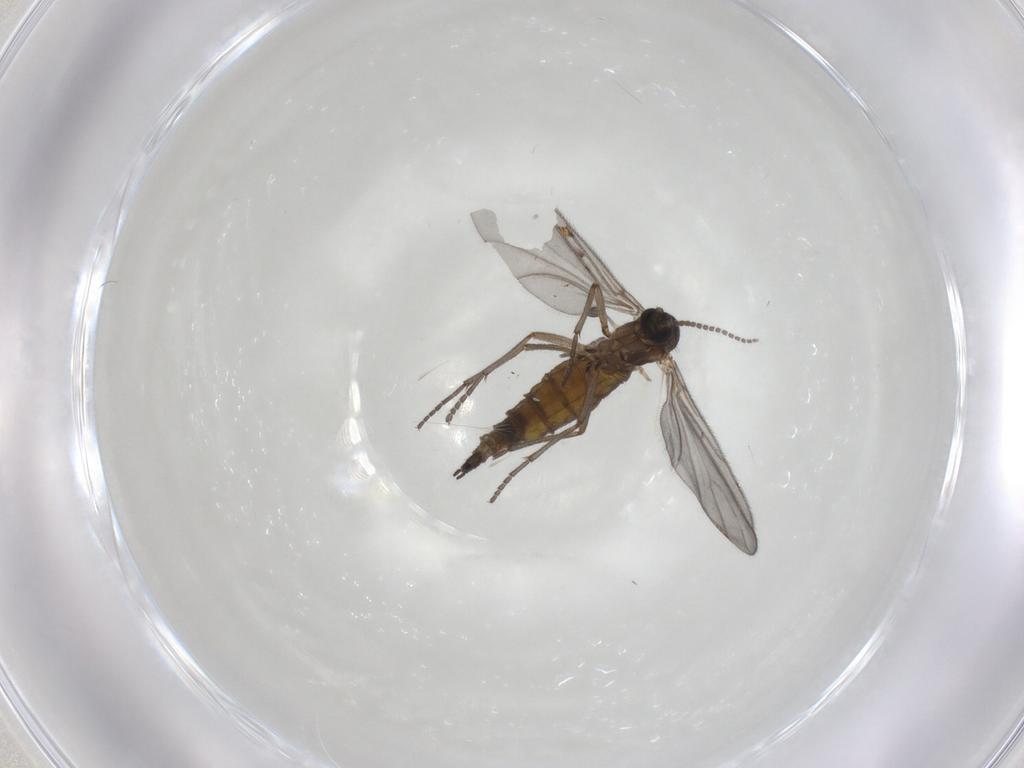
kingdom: Animalia
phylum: Arthropoda
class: Insecta
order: Diptera
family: Sciaridae
